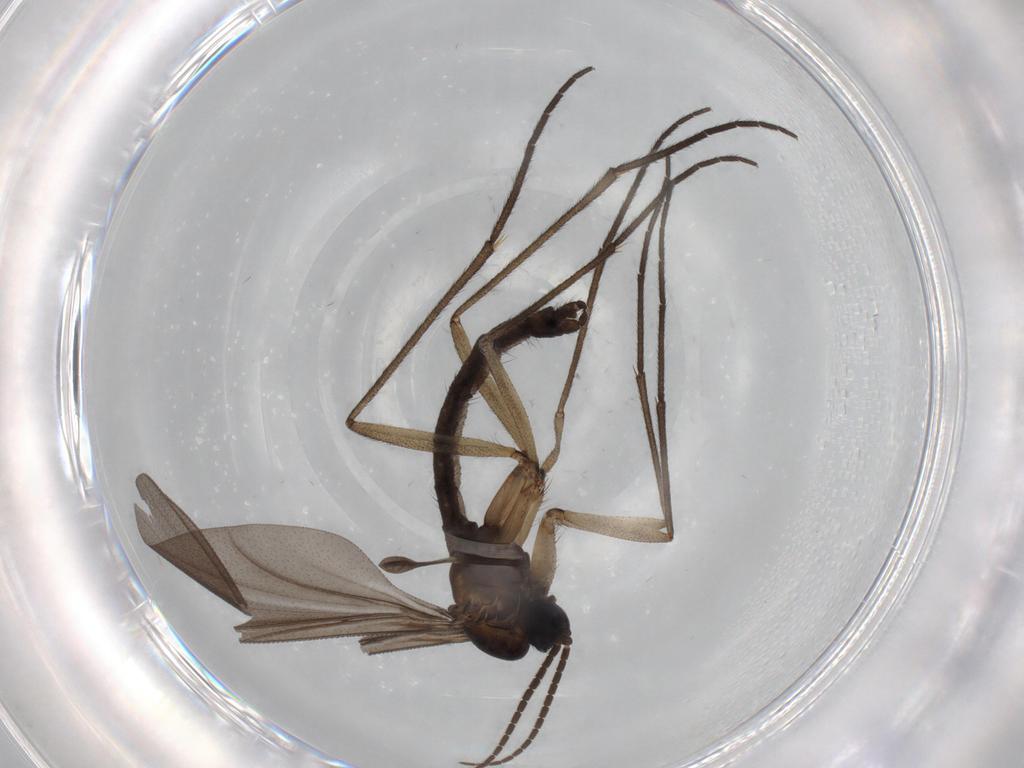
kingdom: Animalia
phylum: Arthropoda
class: Insecta
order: Diptera
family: Sciaridae
